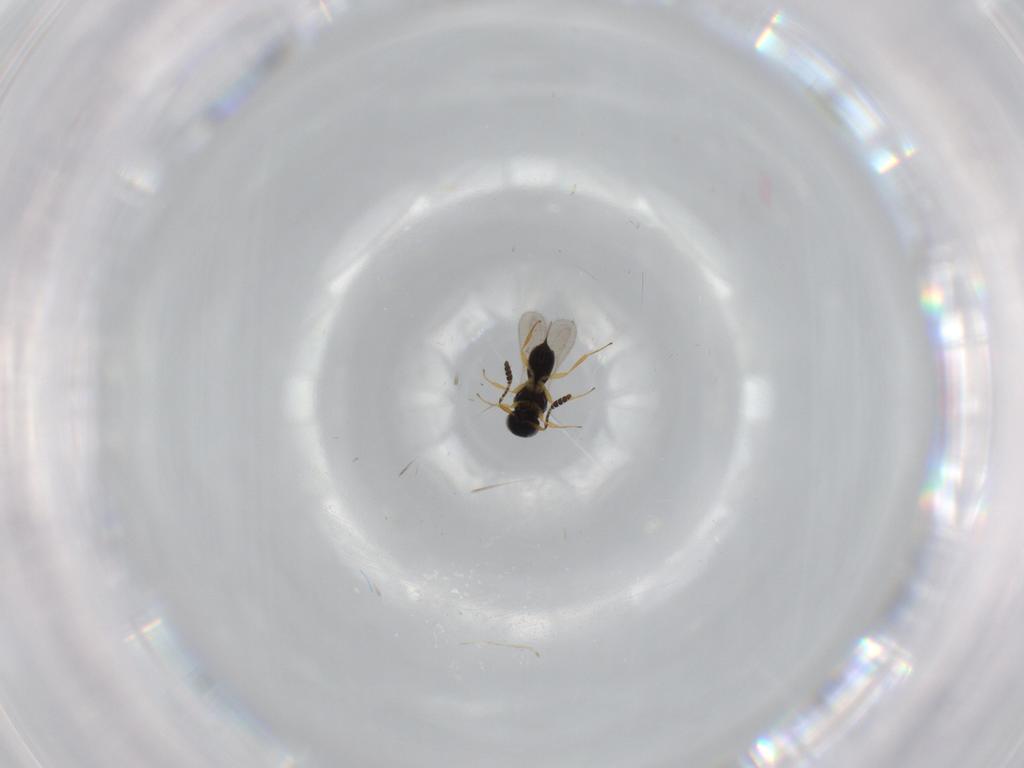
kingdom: Animalia
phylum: Arthropoda
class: Insecta
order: Hymenoptera
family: Scelionidae
